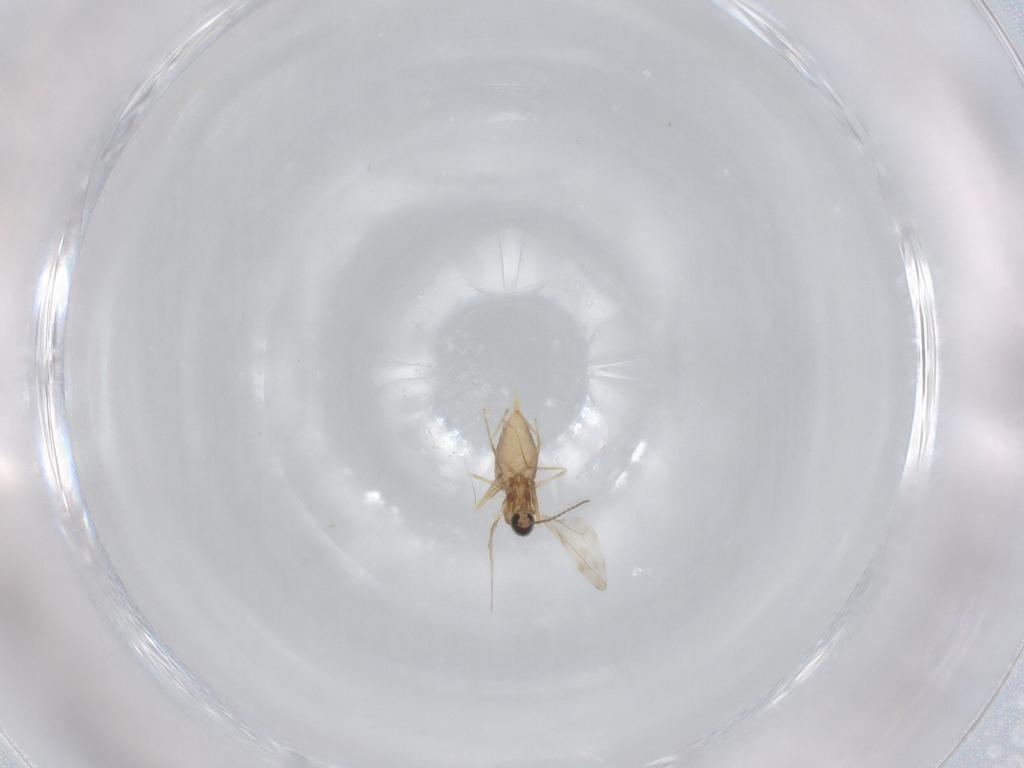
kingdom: Animalia
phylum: Arthropoda
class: Insecta
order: Diptera
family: Cecidomyiidae
